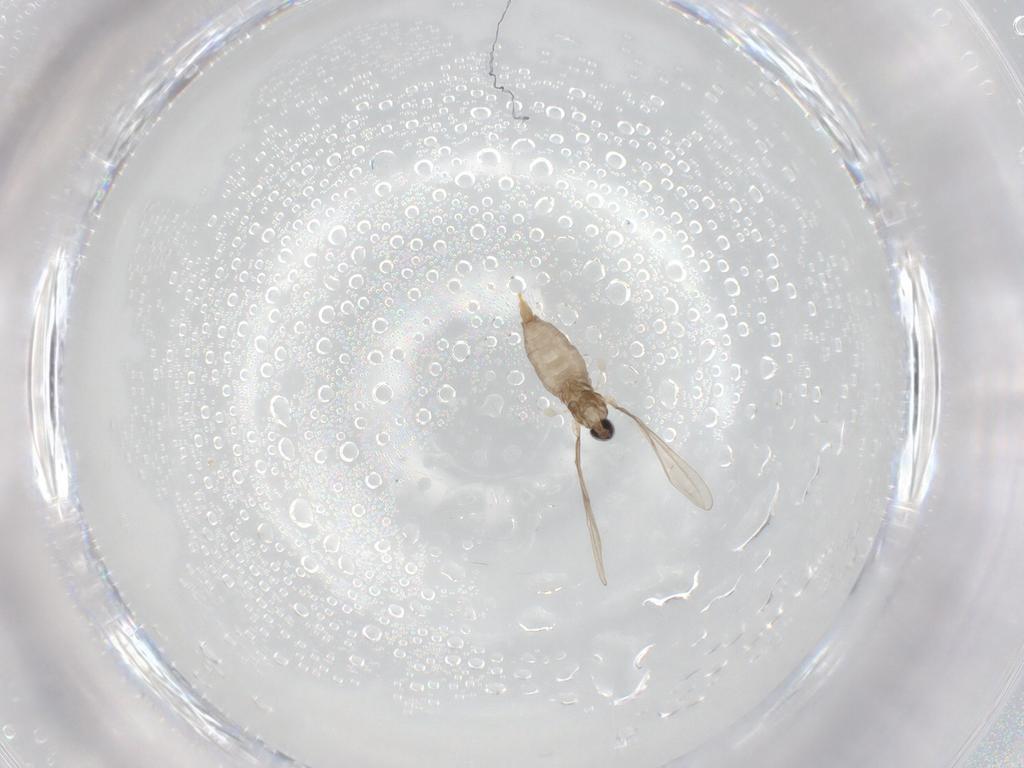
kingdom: Animalia
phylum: Arthropoda
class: Insecta
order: Diptera
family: Cecidomyiidae
